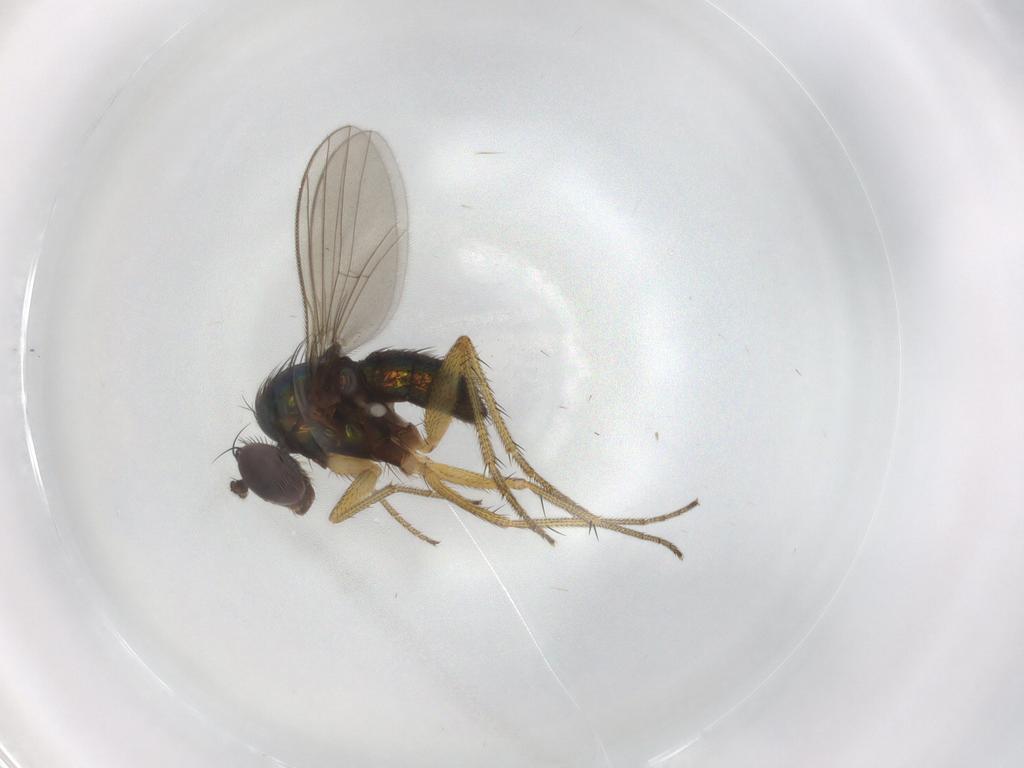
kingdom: Animalia
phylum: Arthropoda
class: Insecta
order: Diptera
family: Dolichopodidae
